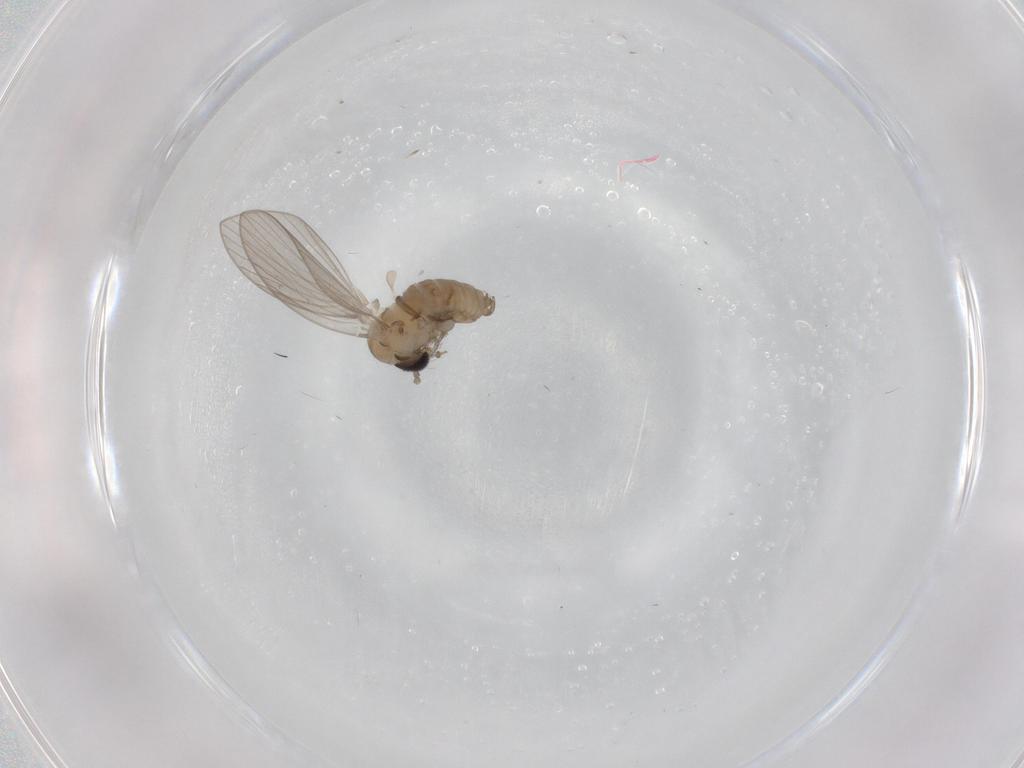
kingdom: Animalia
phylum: Arthropoda
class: Insecta
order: Diptera
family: Psychodidae
